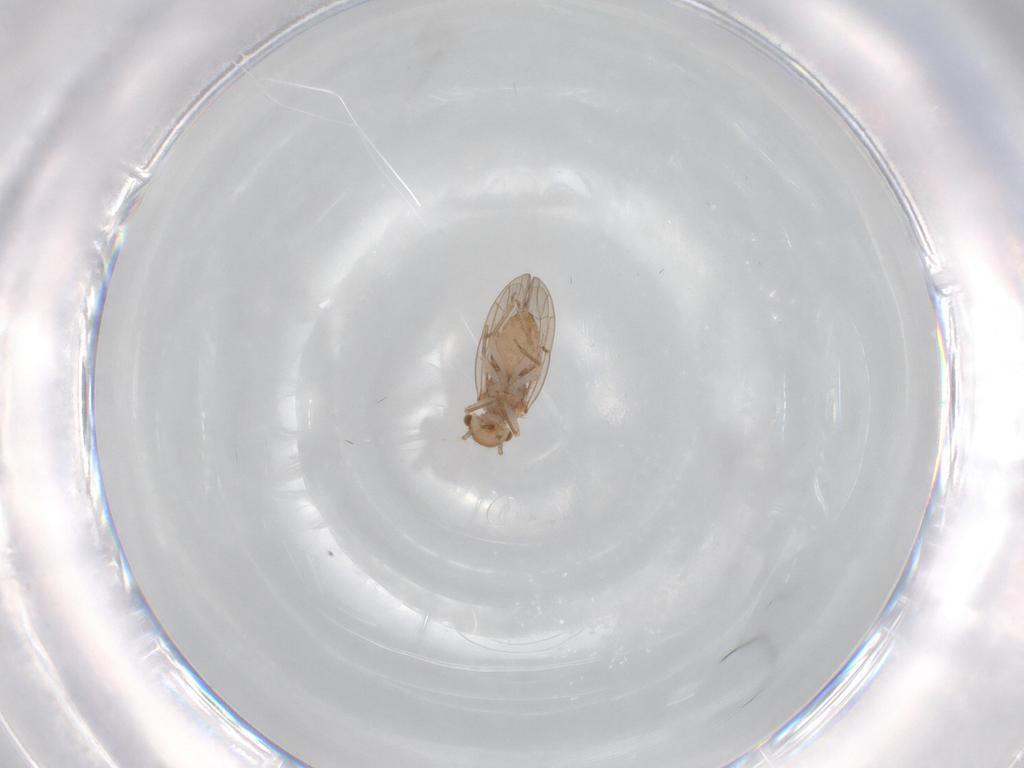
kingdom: Animalia
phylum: Arthropoda
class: Insecta
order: Psocodea
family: Ectopsocidae
